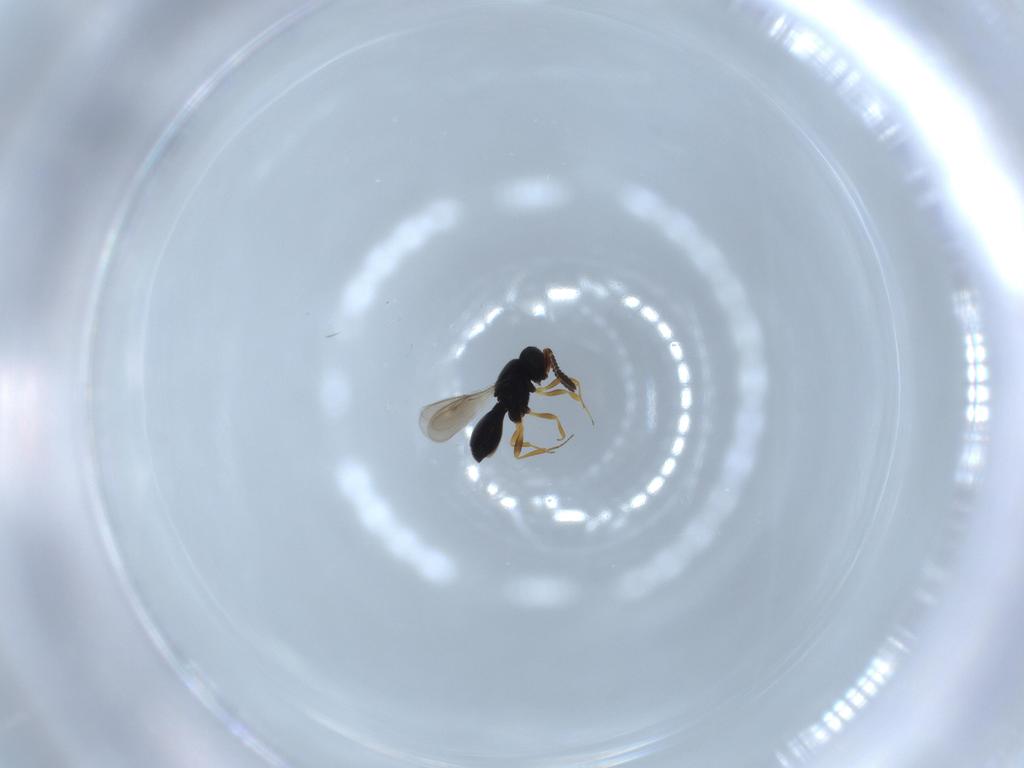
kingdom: Animalia
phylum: Arthropoda
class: Insecta
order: Hymenoptera
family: Scelionidae
